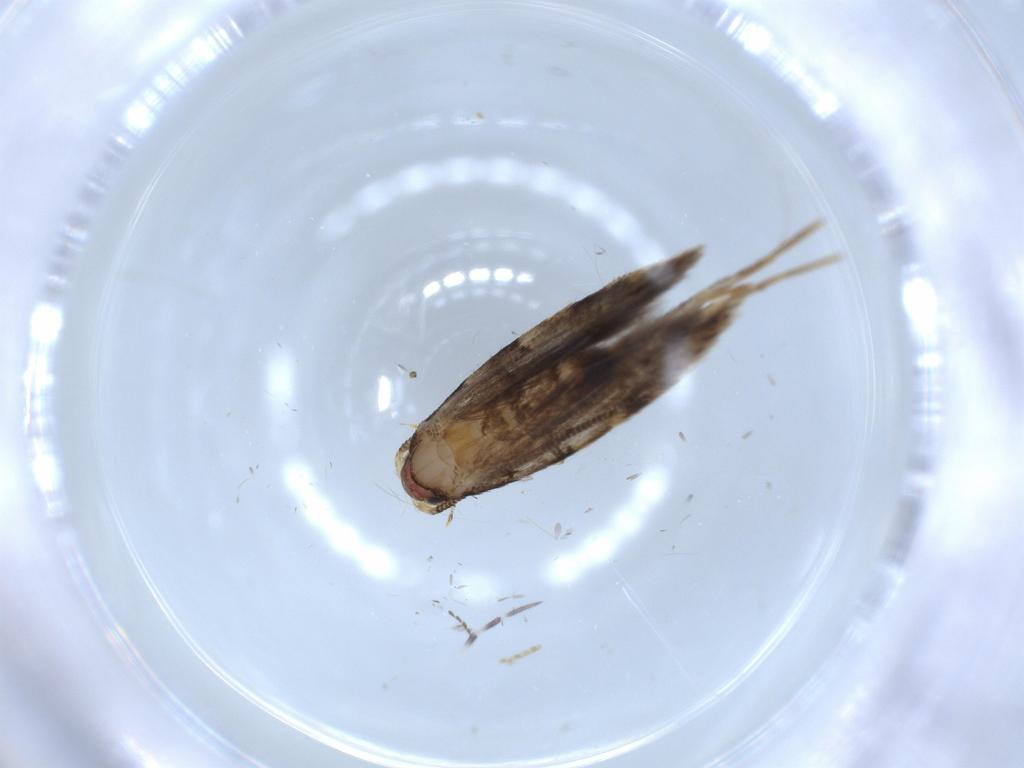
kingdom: Animalia
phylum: Arthropoda
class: Insecta
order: Lepidoptera
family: Tineidae
